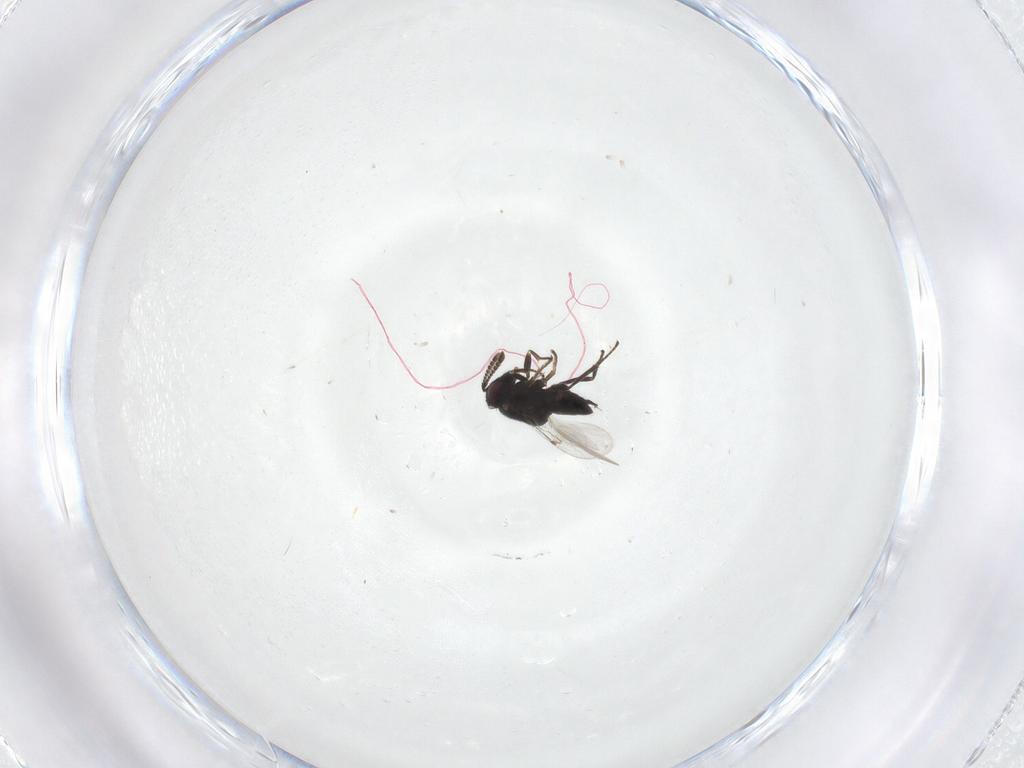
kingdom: Animalia
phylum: Arthropoda
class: Insecta
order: Hymenoptera
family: Encyrtidae
